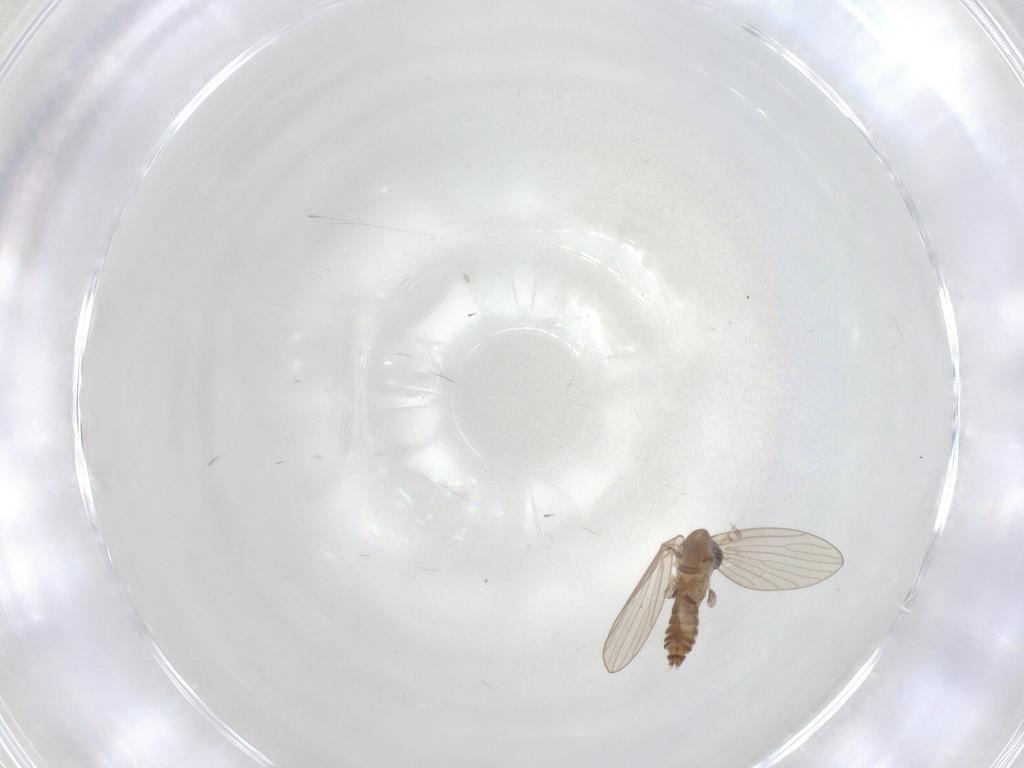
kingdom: Animalia
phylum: Arthropoda
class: Insecta
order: Diptera
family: Psychodidae
